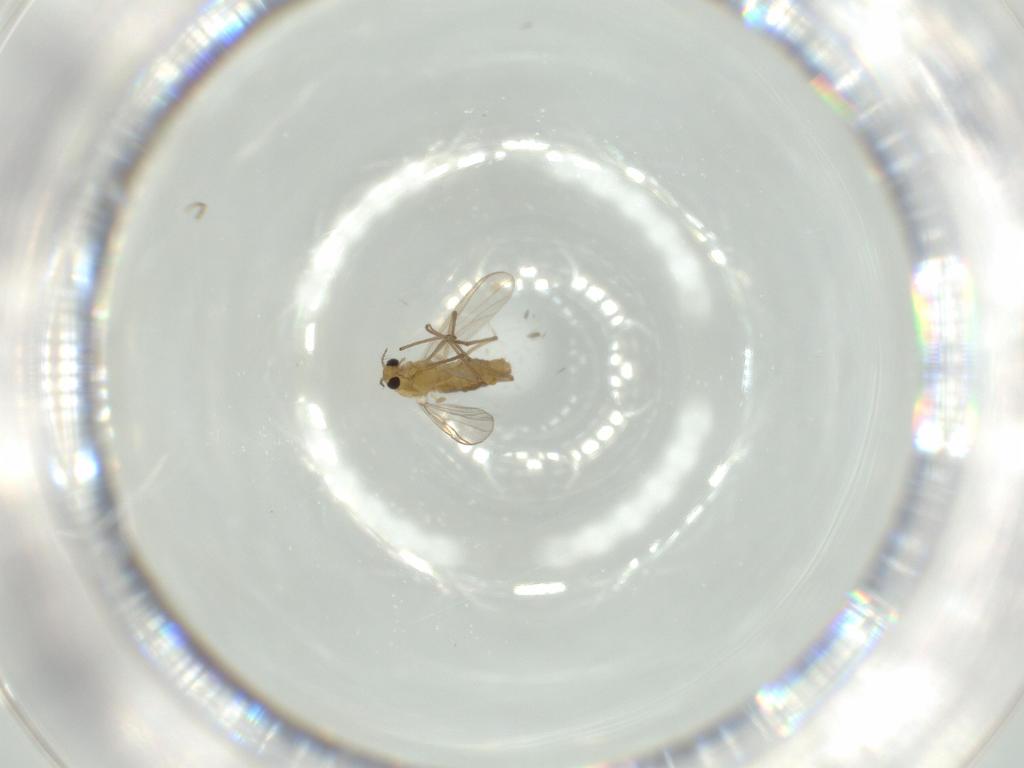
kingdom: Animalia
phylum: Arthropoda
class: Insecta
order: Diptera
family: Chironomidae
